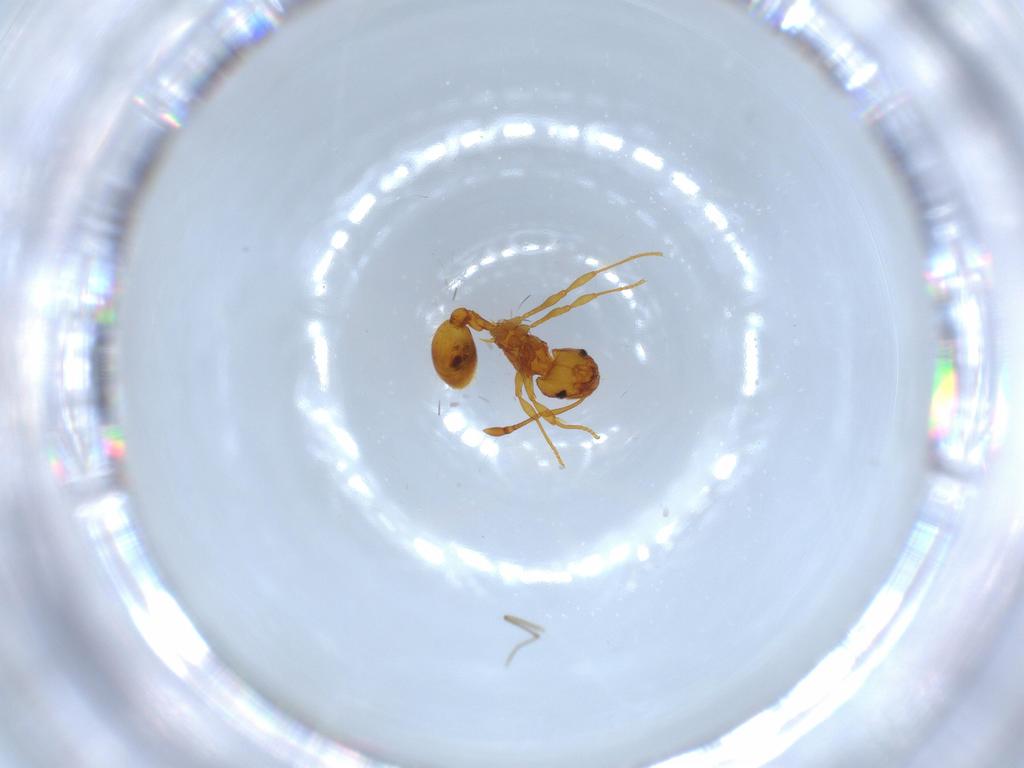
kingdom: Animalia
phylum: Arthropoda
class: Insecta
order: Hymenoptera
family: Formicidae
